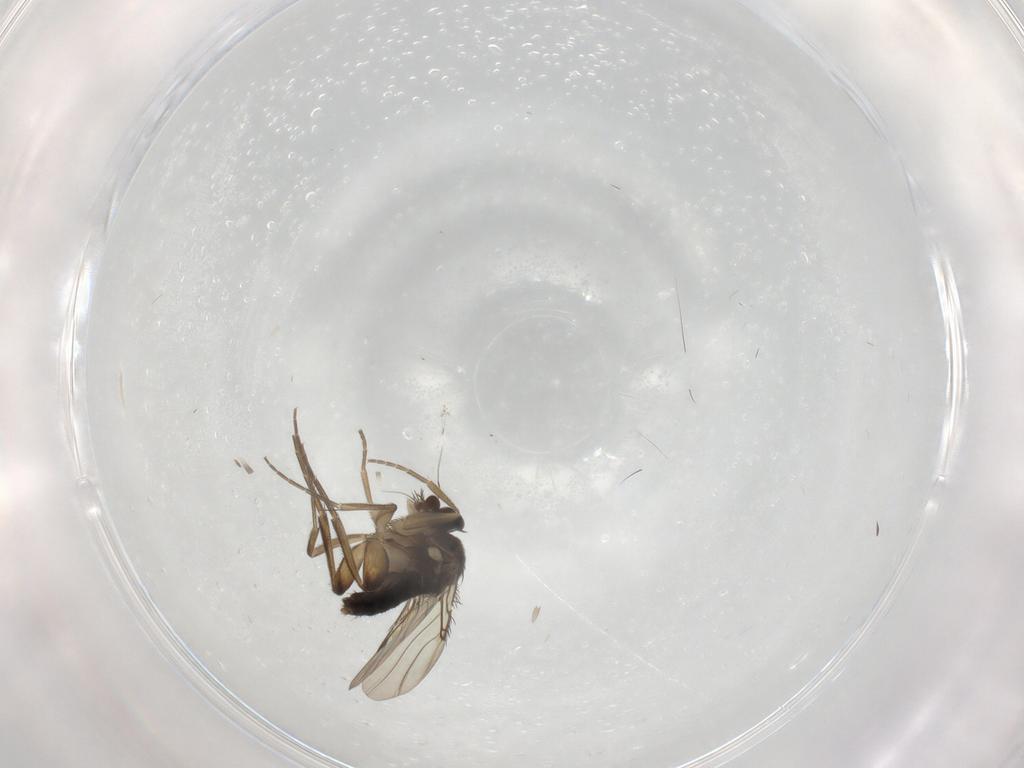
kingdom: Animalia
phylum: Arthropoda
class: Insecta
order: Diptera
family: Phoridae
